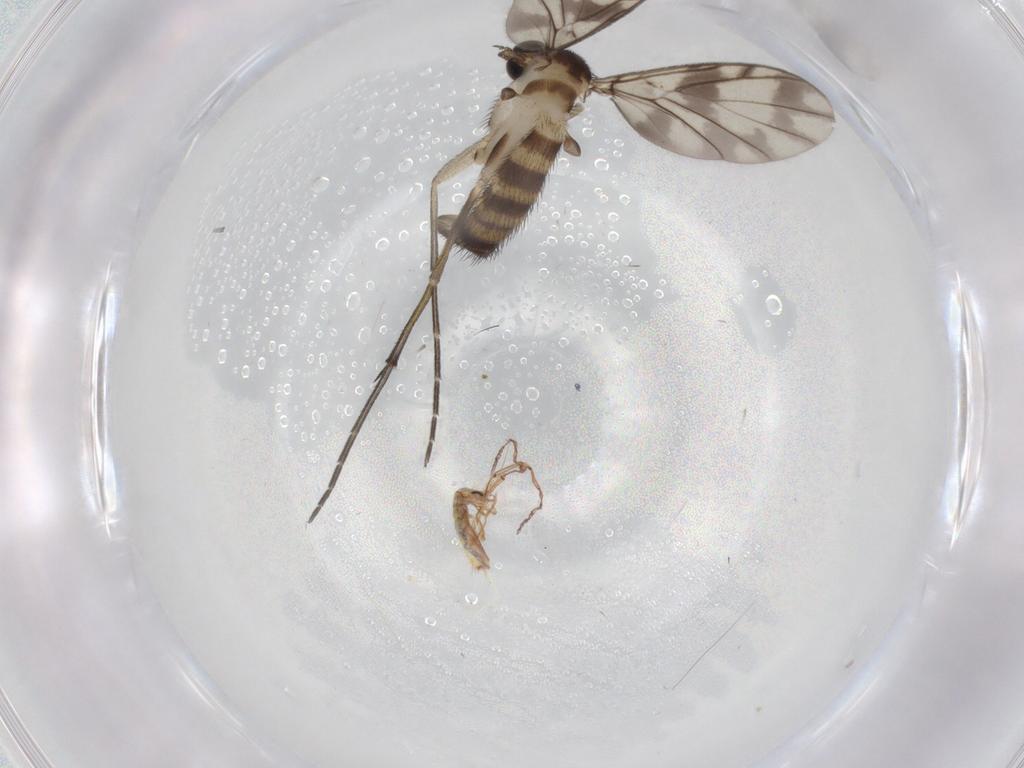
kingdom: Animalia
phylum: Arthropoda
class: Insecta
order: Diptera
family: Keroplatidae
